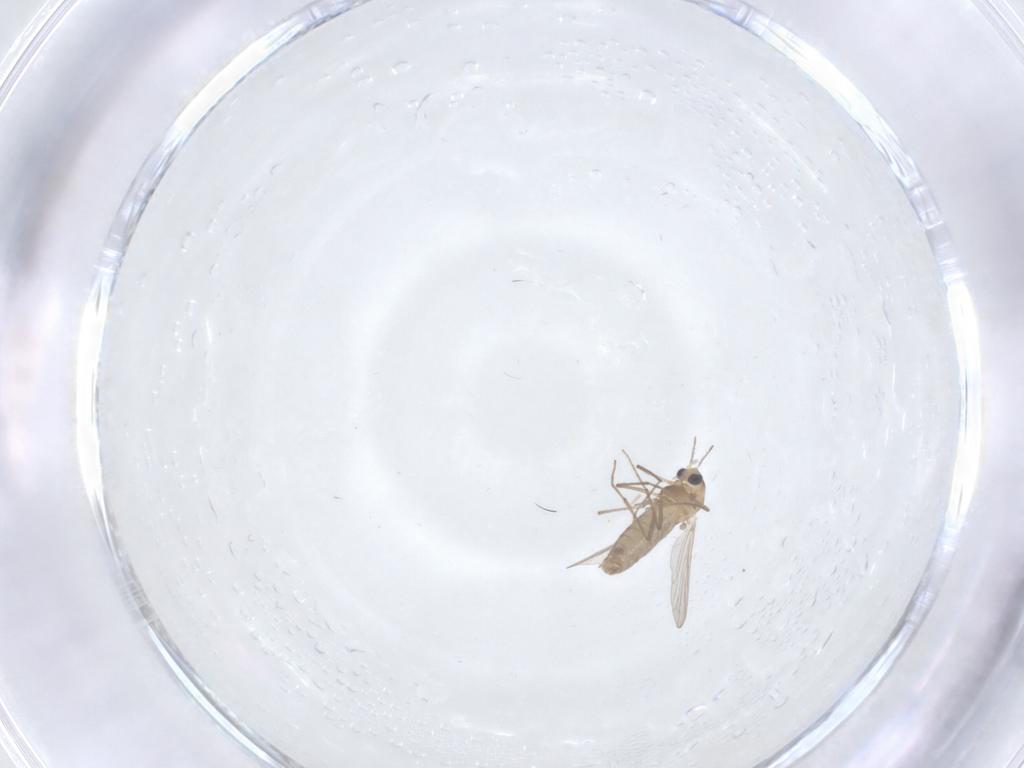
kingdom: Animalia
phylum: Arthropoda
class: Insecta
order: Diptera
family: Chironomidae
